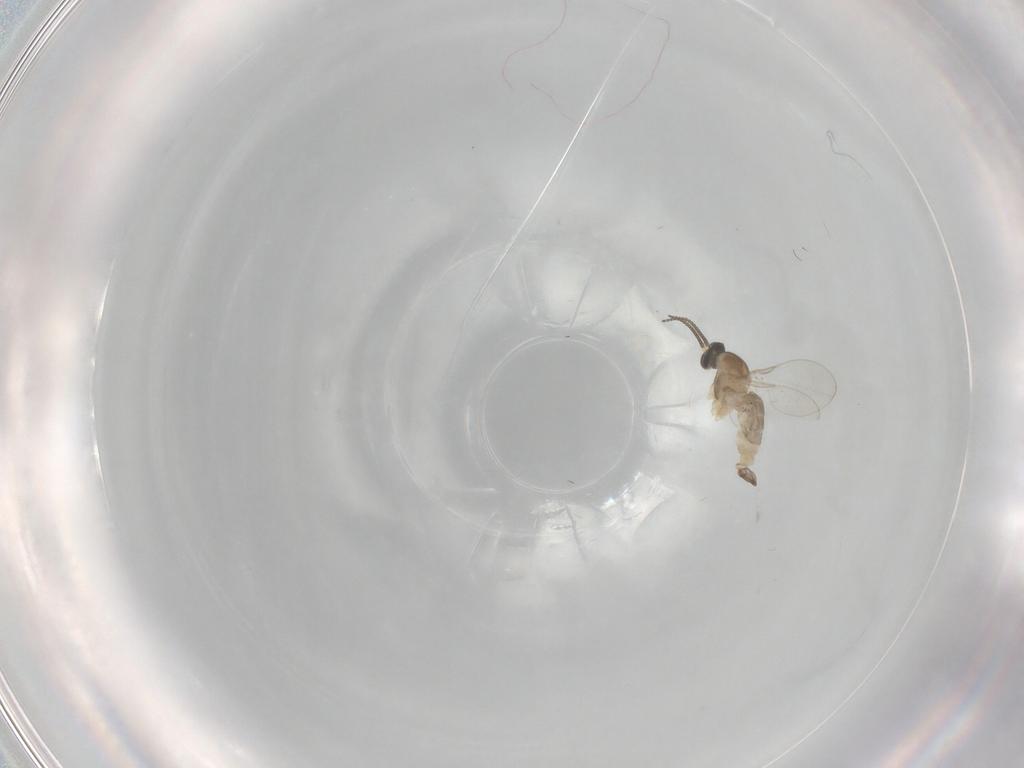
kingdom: Animalia
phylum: Arthropoda
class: Insecta
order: Diptera
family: Cecidomyiidae
